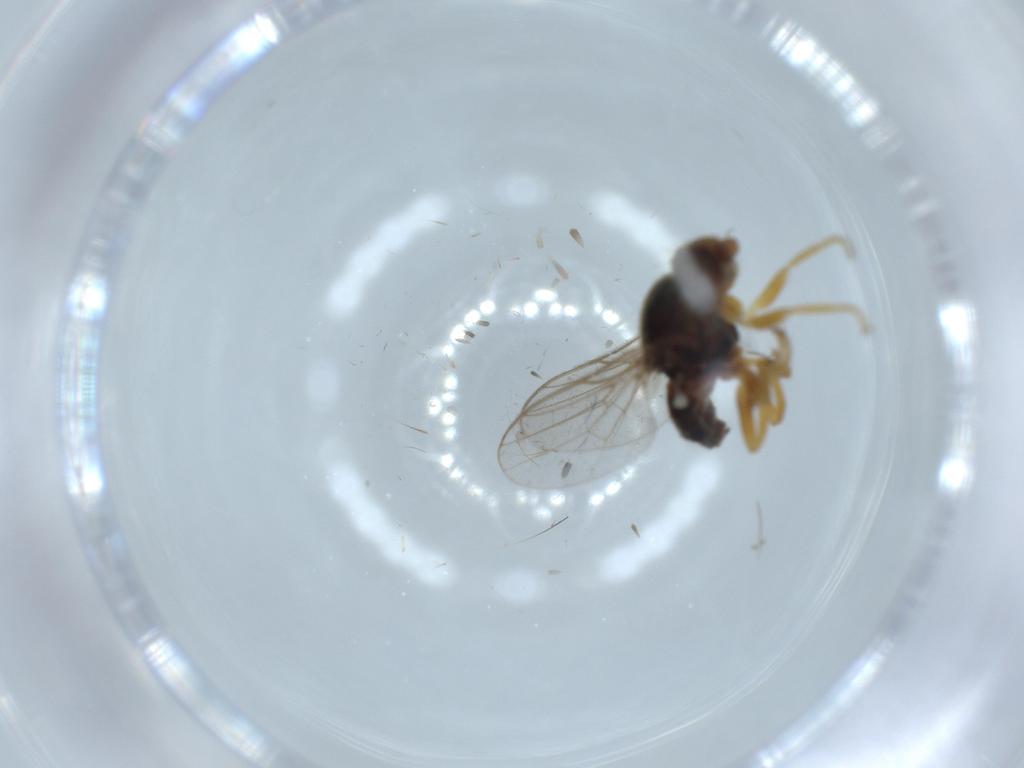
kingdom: Animalia
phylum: Arthropoda
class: Insecta
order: Diptera
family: Chloropidae
